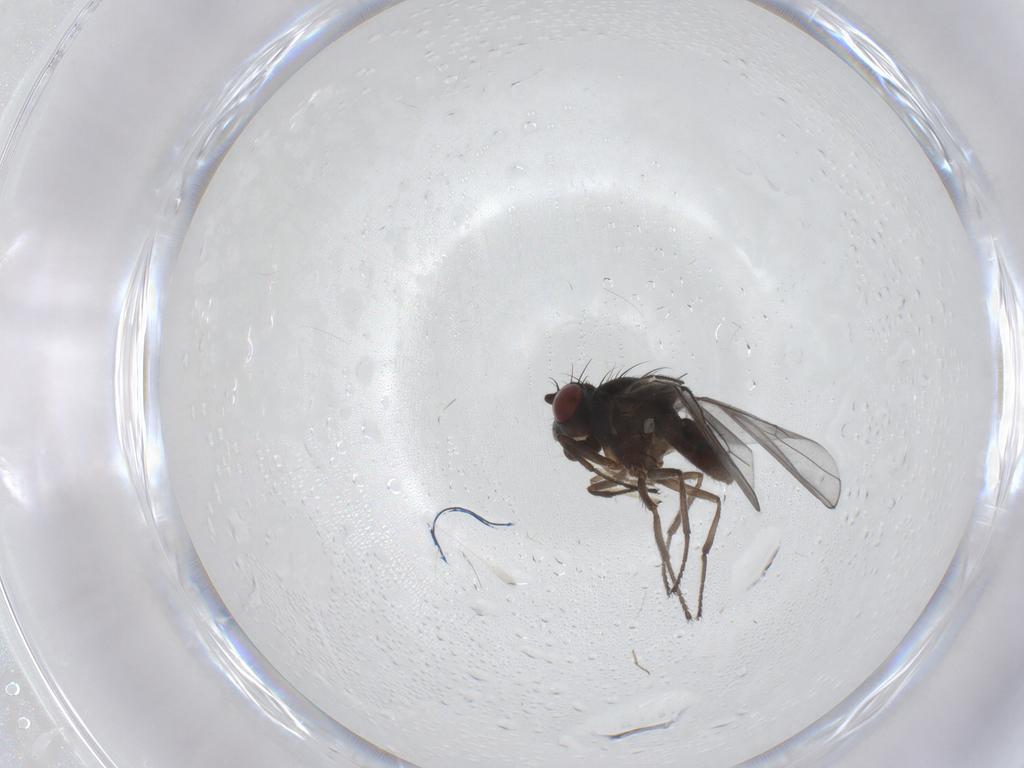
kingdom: Animalia
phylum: Arthropoda
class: Insecta
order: Diptera
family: Ephydridae
